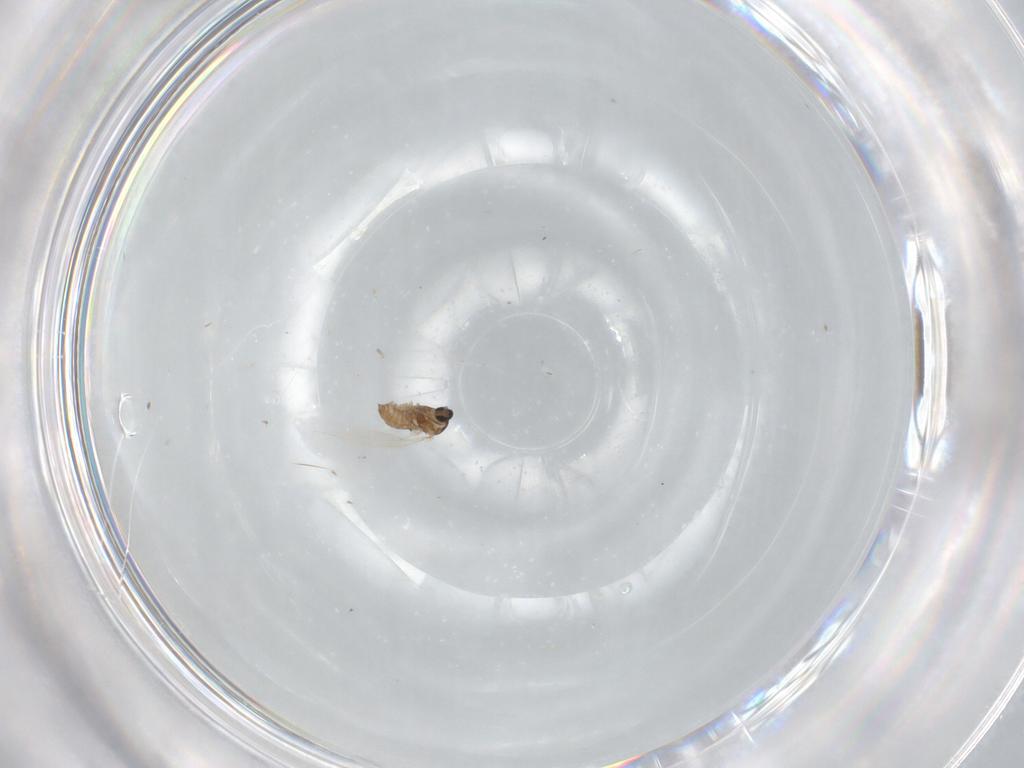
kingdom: Animalia
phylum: Arthropoda
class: Insecta
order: Diptera
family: Cecidomyiidae
